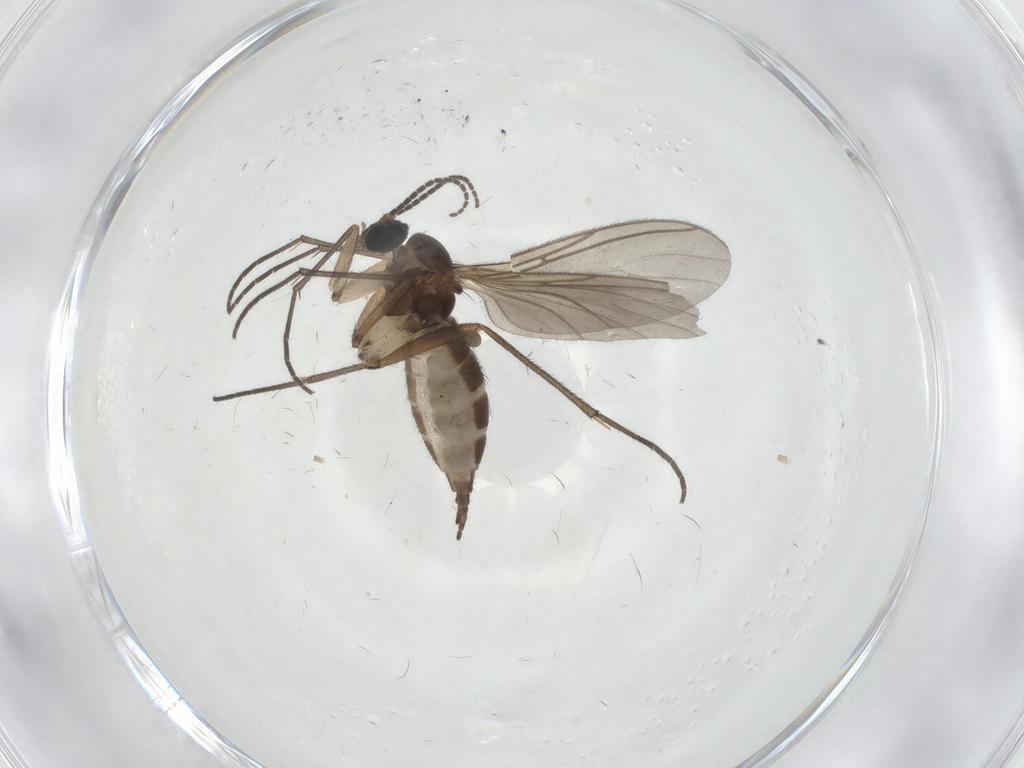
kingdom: Animalia
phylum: Arthropoda
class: Insecta
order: Diptera
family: Sciaridae
